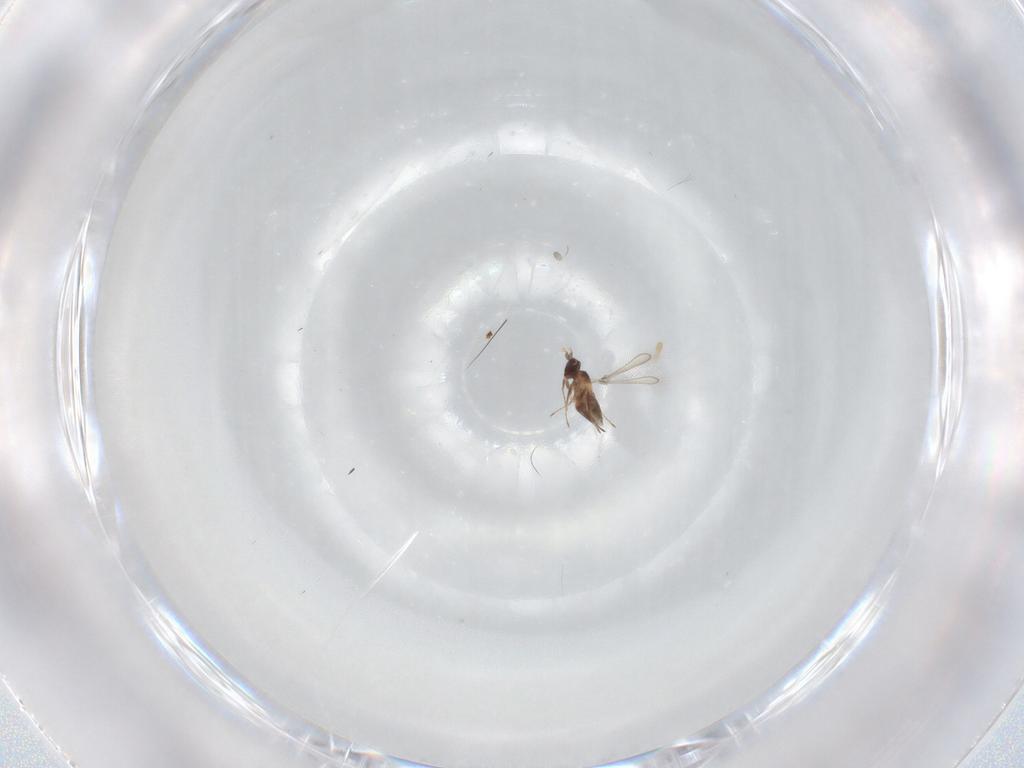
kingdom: Animalia
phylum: Arthropoda
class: Insecta
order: Hymenoptera
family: Mymaridae
